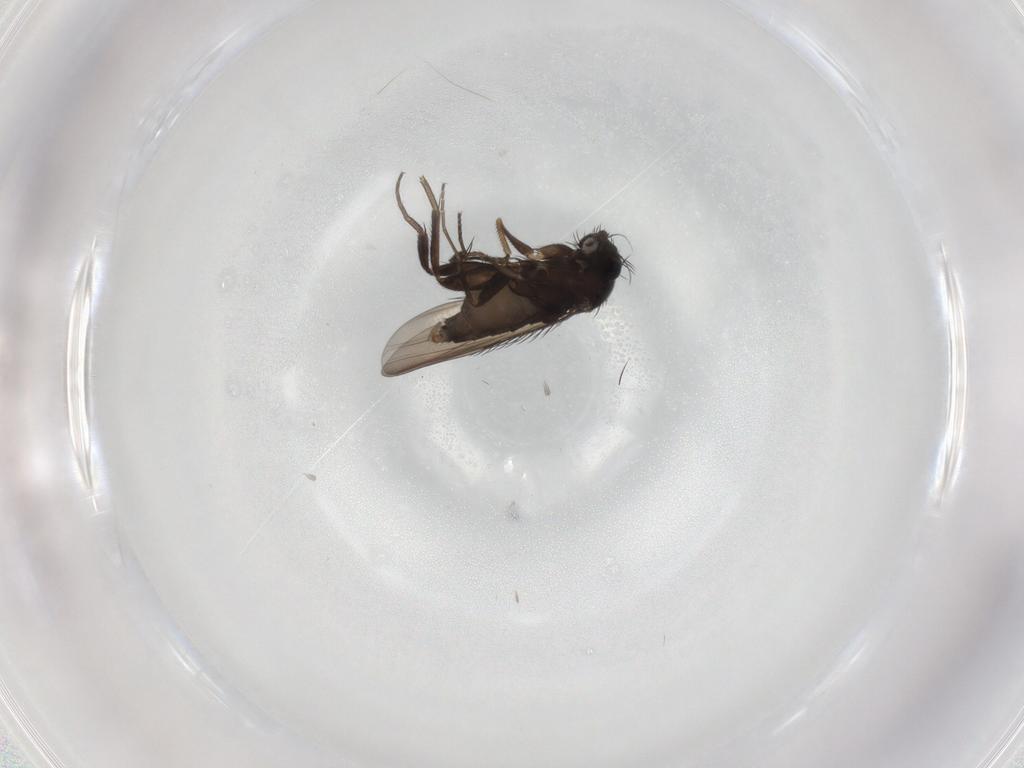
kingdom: Animalia
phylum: Arthropoda
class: Insecta
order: Diptera
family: Phoridae
